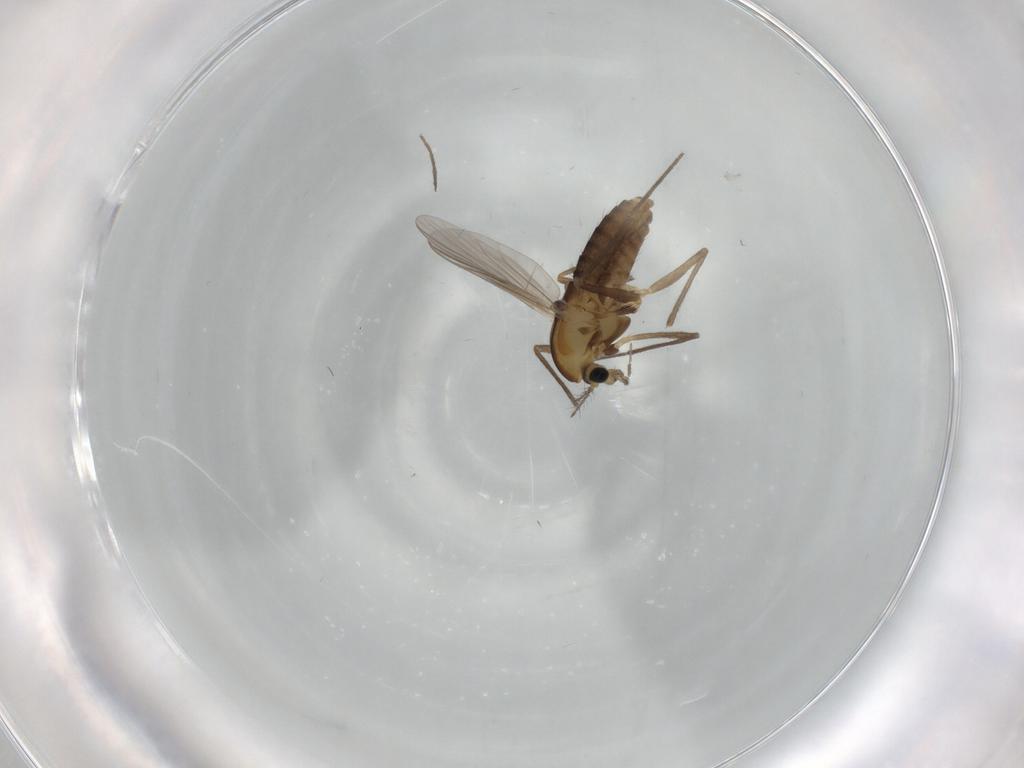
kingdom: Animalia
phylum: Arthropoda
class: Insecta
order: Diptera
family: Chironomidae
